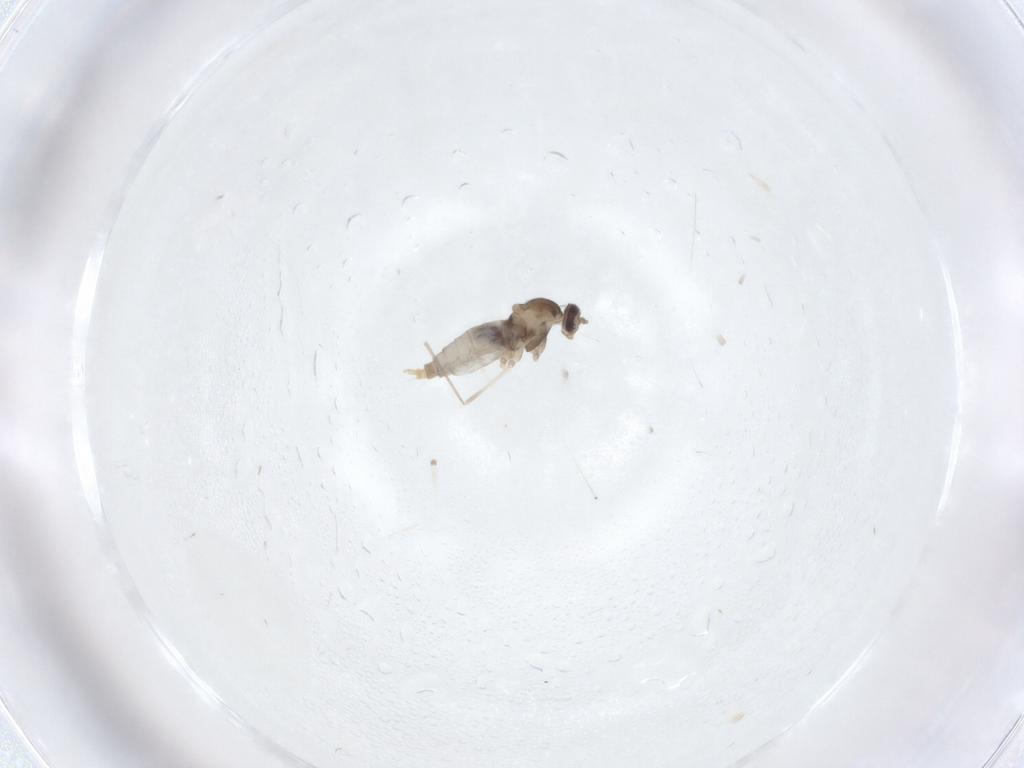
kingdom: Animalia
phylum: Arthropoda
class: Insecta
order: Diptera
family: Cecidomyiidae
